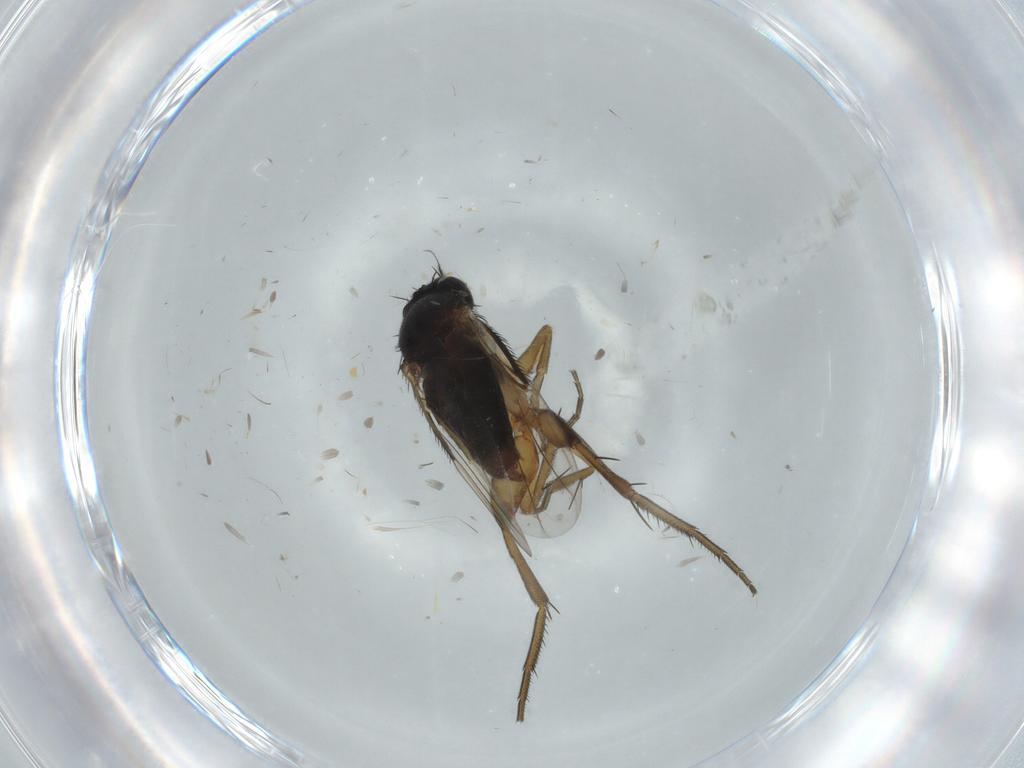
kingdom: Animalia
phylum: Arthropoda
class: Insecta
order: Diptera
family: Phoridae
